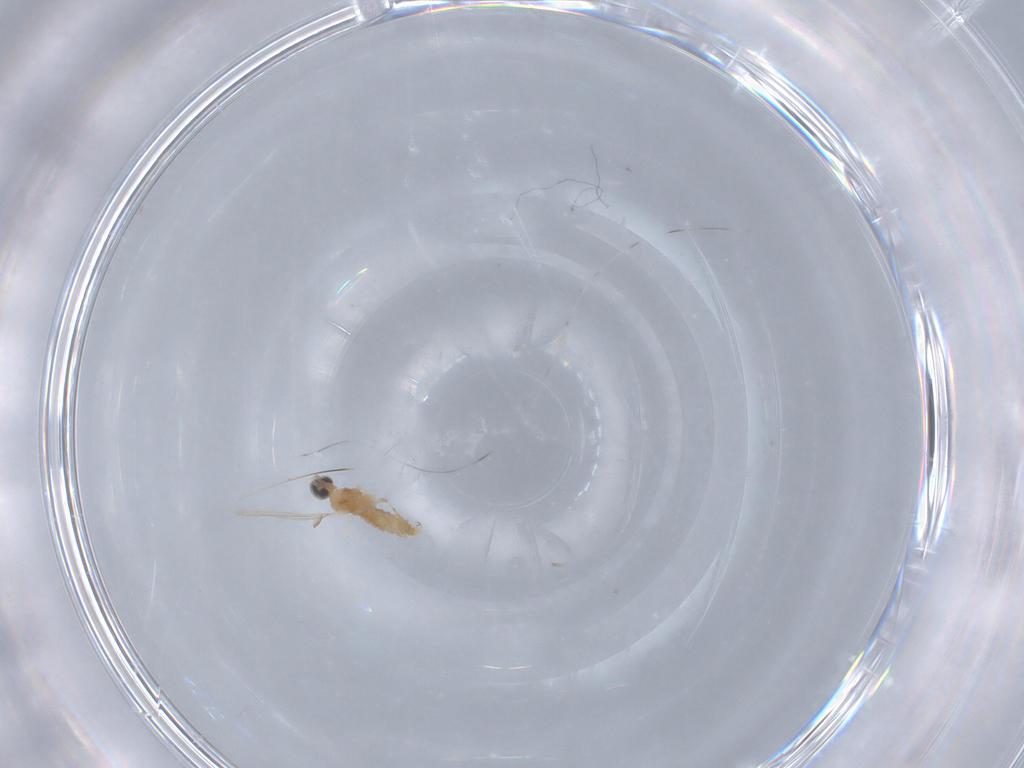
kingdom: Animalia
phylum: Arthropoda
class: Insecta
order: Diptera
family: Cecidomyiidae
